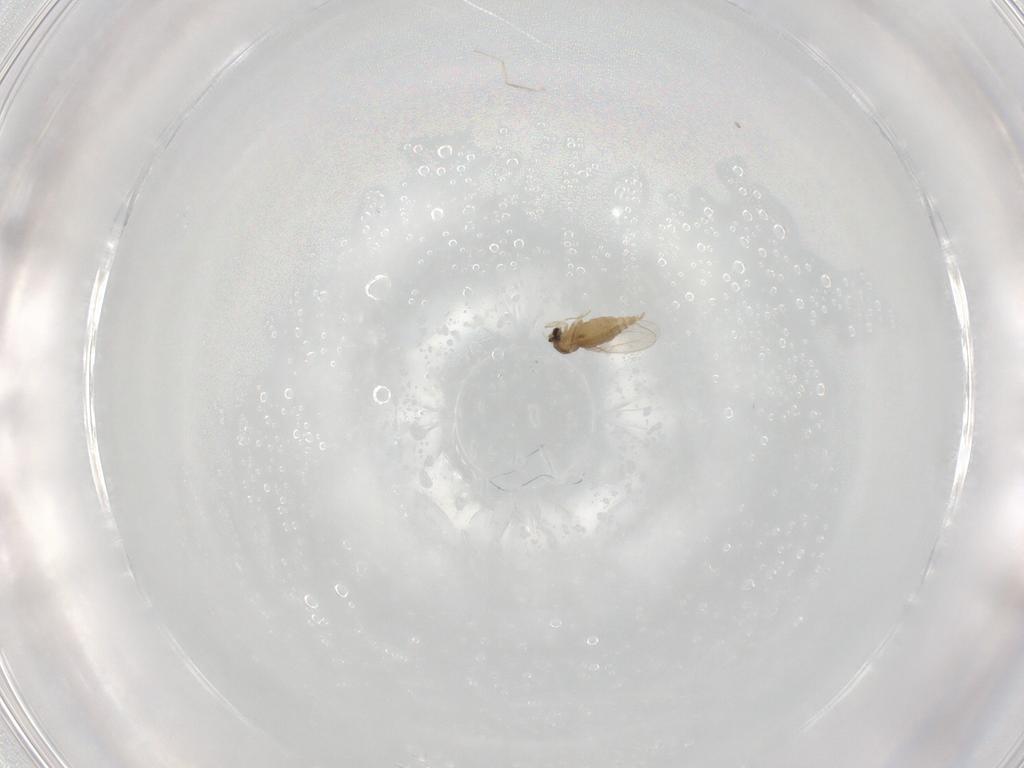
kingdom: Animalia
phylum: Arthropoda
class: Insecta
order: Diptera
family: Cecidomyiidae
